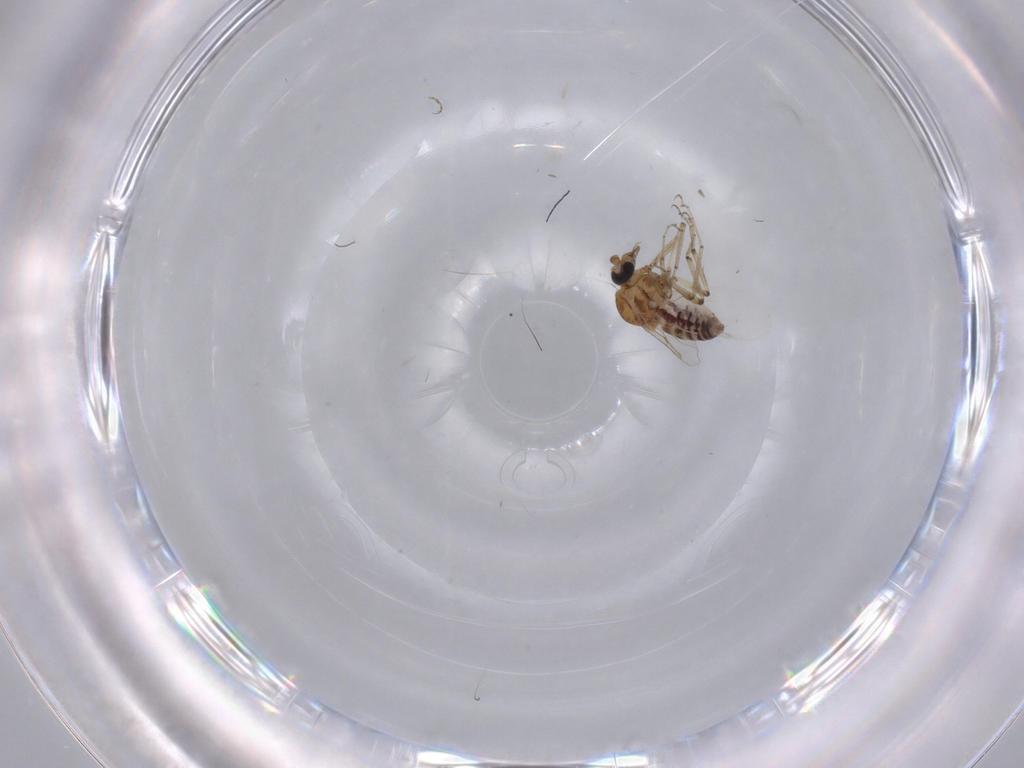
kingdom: Animalia
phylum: Arthropoda
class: Insecta
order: Diptera
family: Ceratopogonidae
